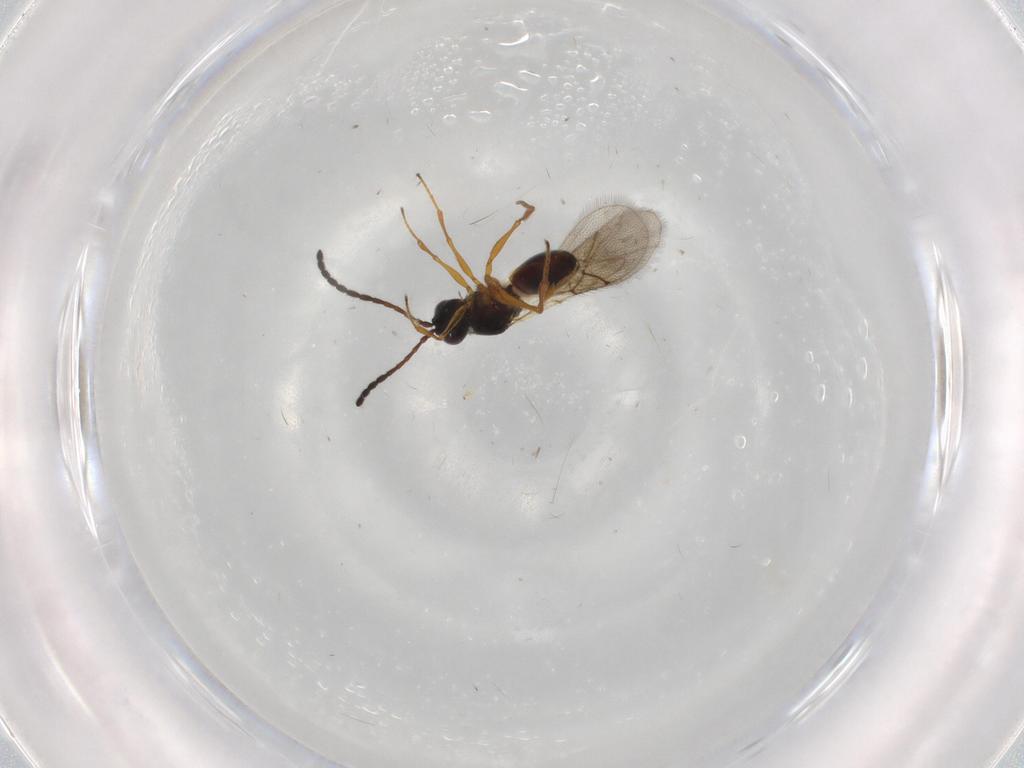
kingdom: Animalia
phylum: Arthropoda
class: Insecta
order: Hymenoptera
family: Figitidae
